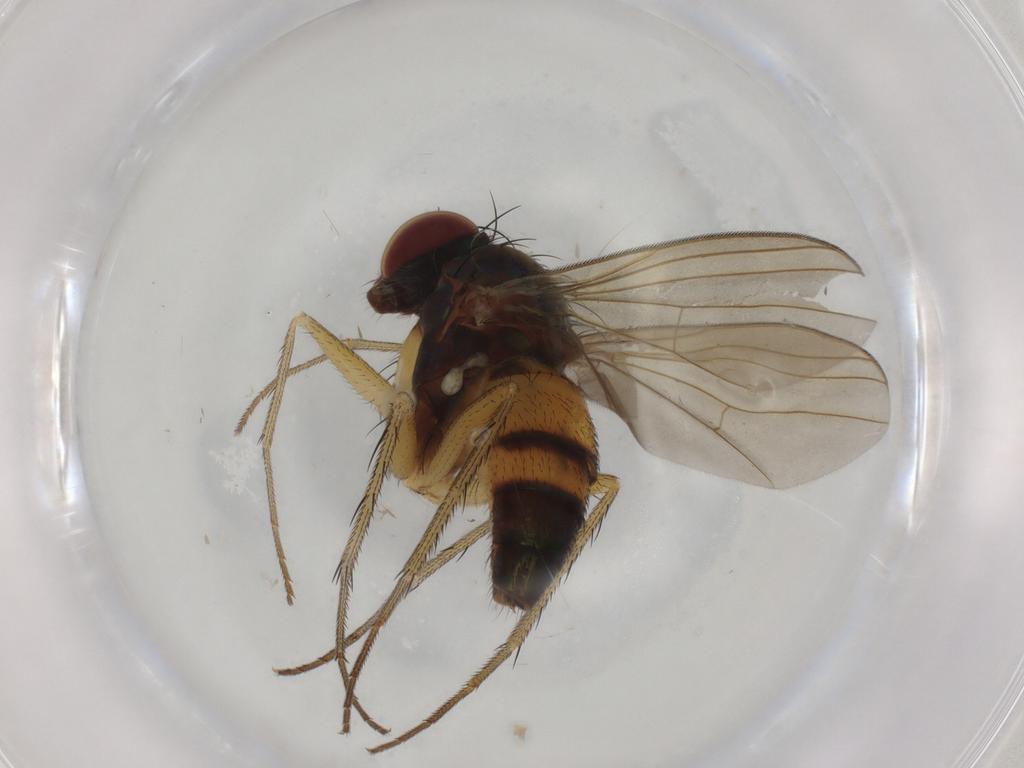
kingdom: Animalia
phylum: Arthropoda
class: Insecta
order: Diptera
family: Dolichopodidae
